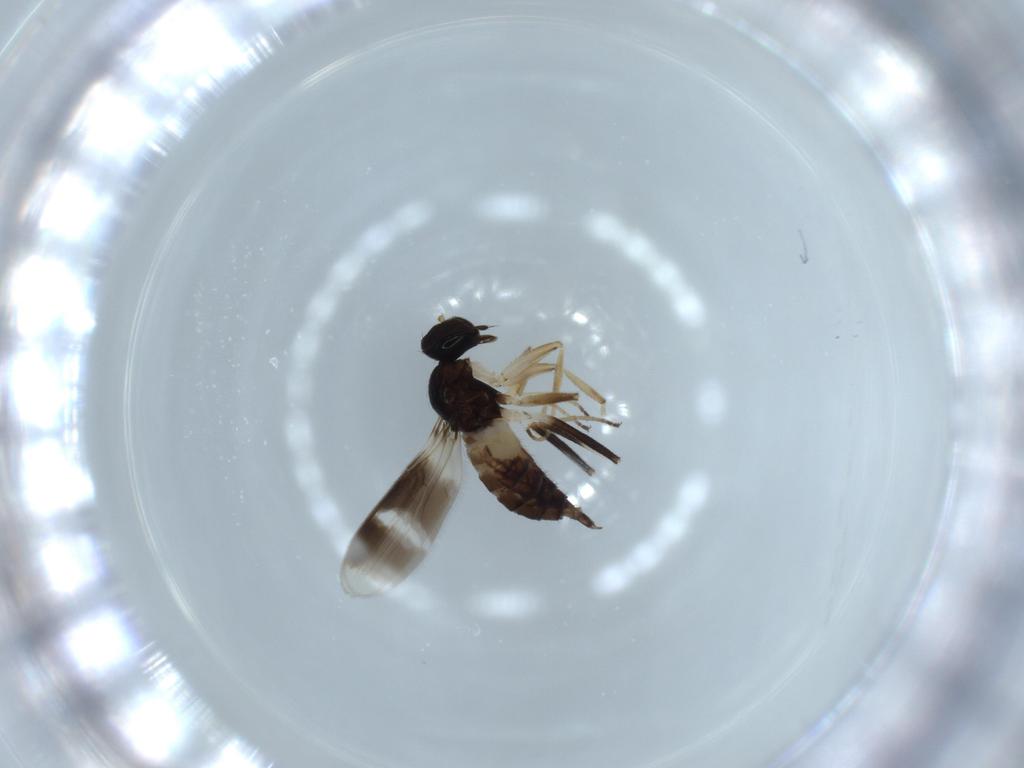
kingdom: Animalia
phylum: Arthropoda
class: Insecta
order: Diptera
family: Hybotidae
